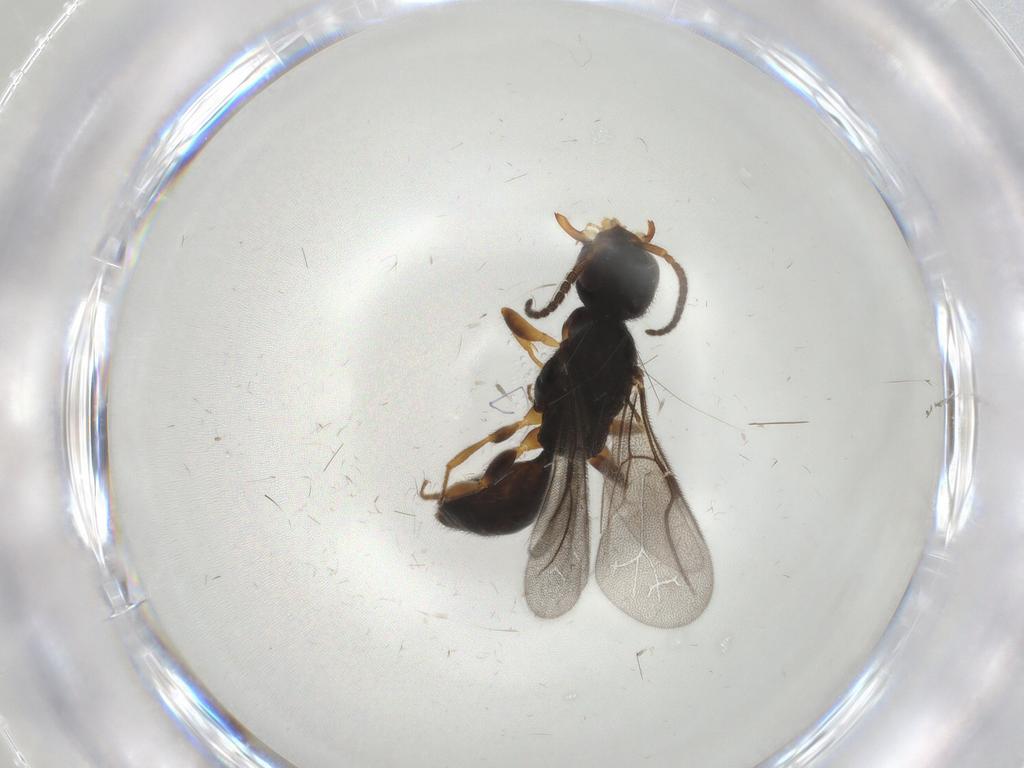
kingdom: Animalia
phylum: Arthropoda
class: Insecta
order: Hymenoptera
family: Bethylidae
